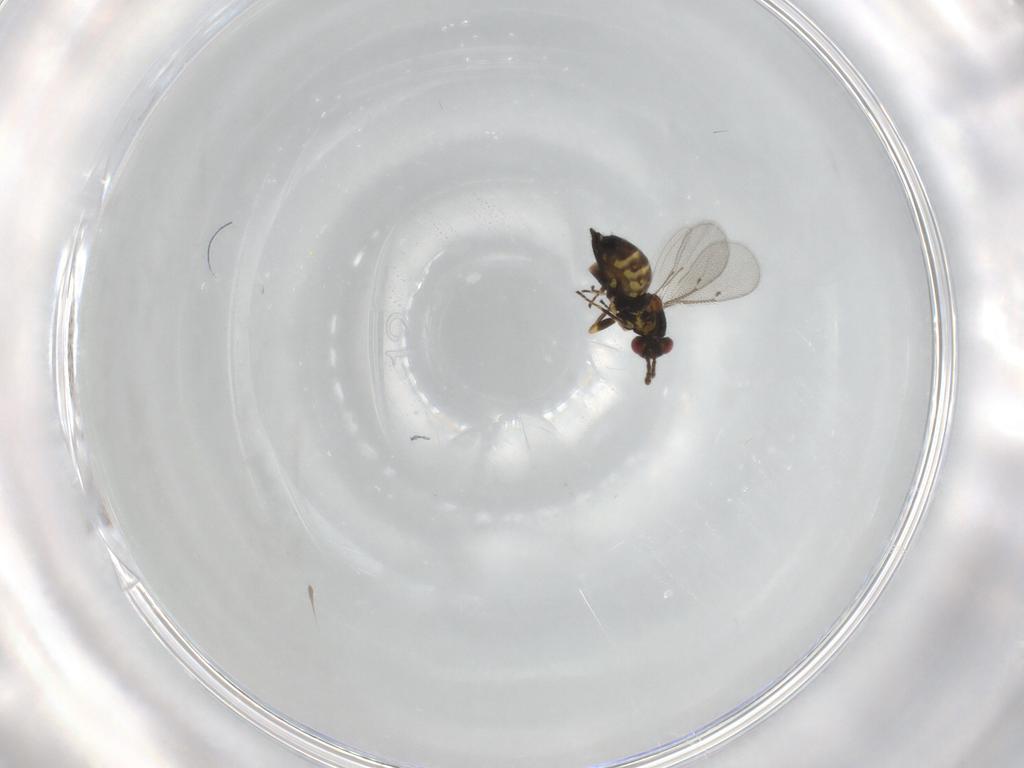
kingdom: Animalia
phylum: Arthropoda
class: Insecta
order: Hymenoptera
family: Eulophidae
